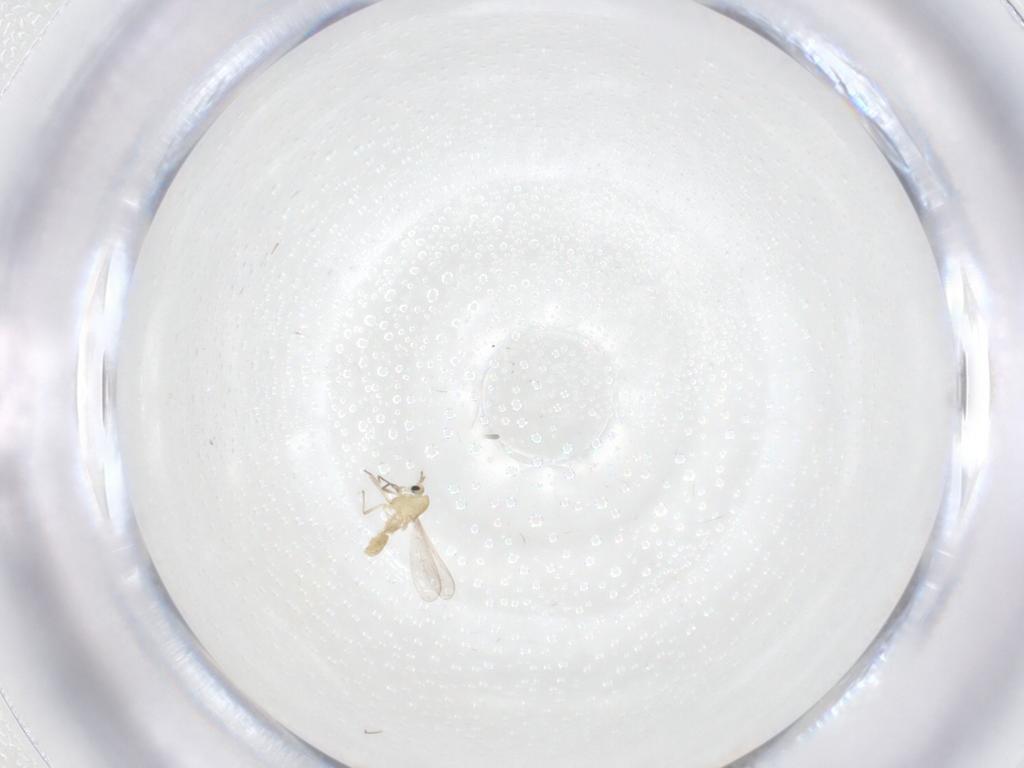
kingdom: Animalia
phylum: Arthropoda
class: Insecta
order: Diptera
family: Chironomidae
